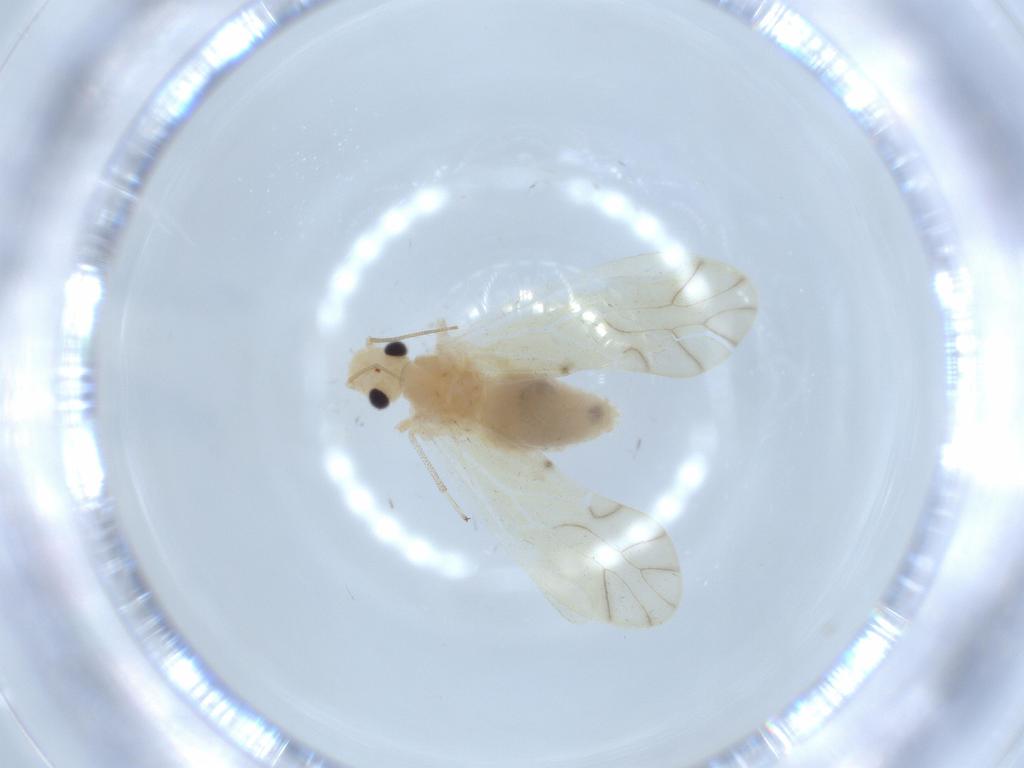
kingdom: Animalia
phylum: Arthropoda
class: Insecta
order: Psocodea
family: Caeciliusidae
